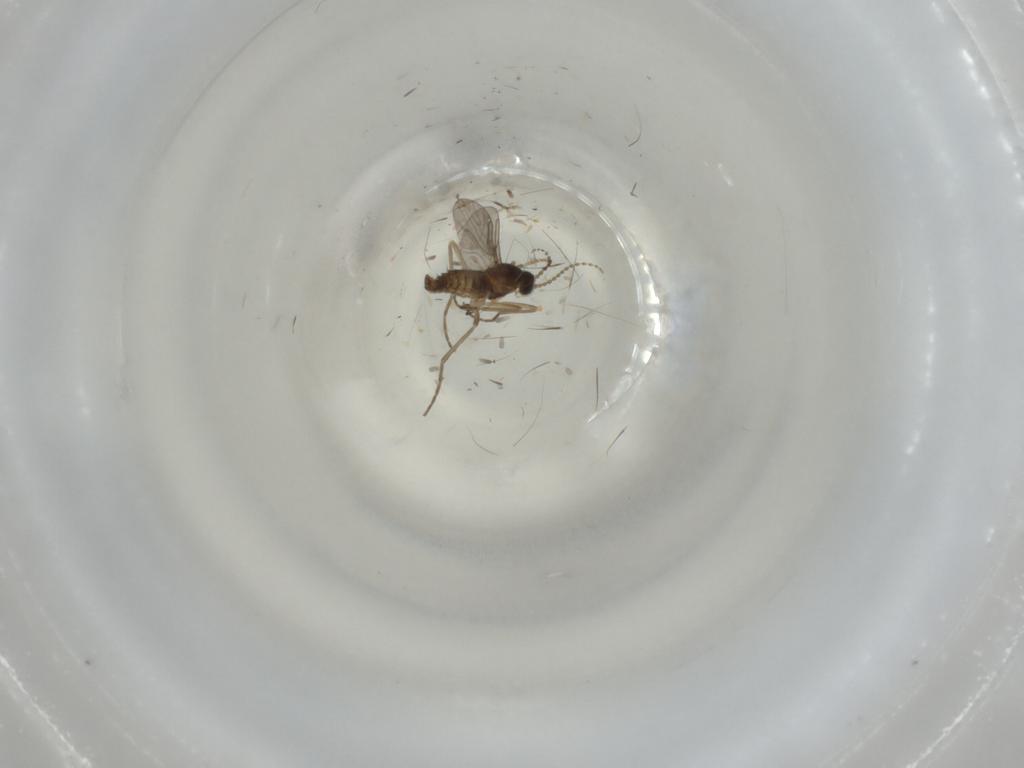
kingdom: Animalia
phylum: Arthropoda
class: Insecta
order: Diptera
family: Cecidomyiidae
